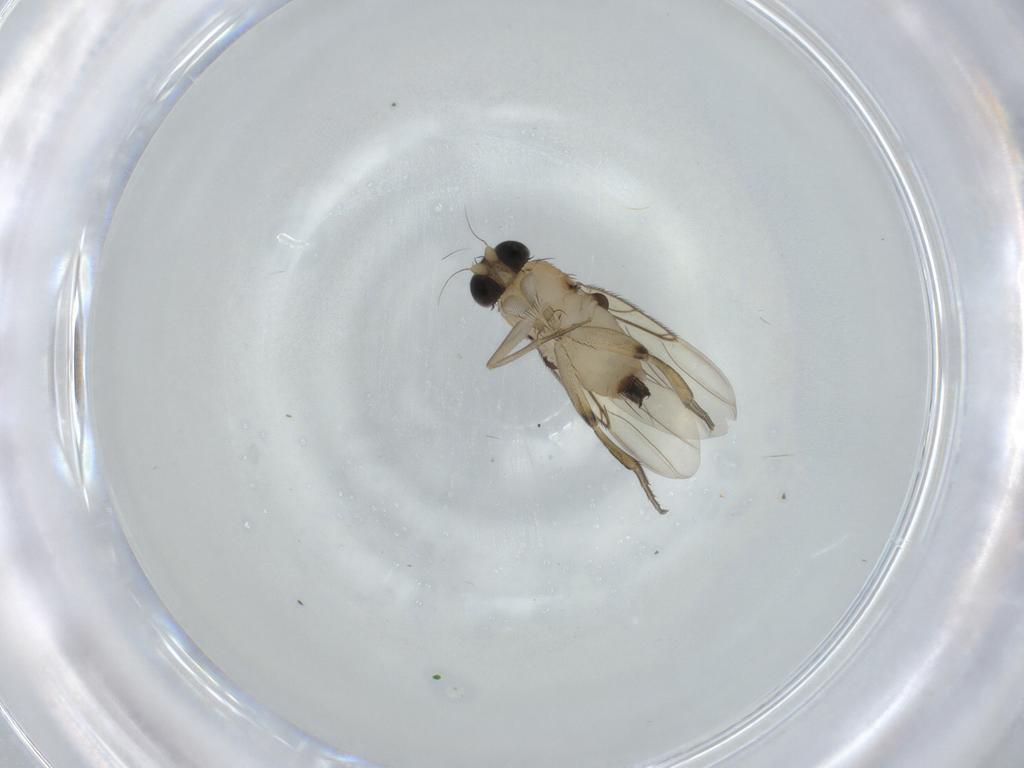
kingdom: Animalia
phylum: Arthropoda
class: Insecta
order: Diptera
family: Phoridae
